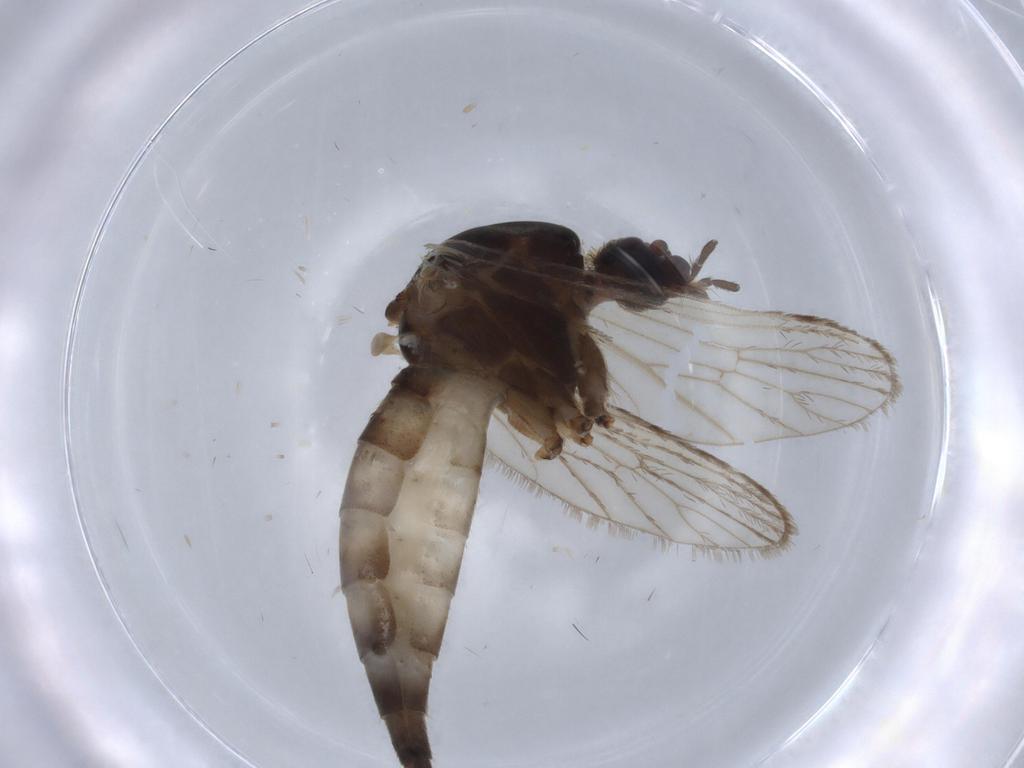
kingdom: Animalia
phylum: Arthropoda
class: Insecta
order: Diptera
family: Chironomidae
